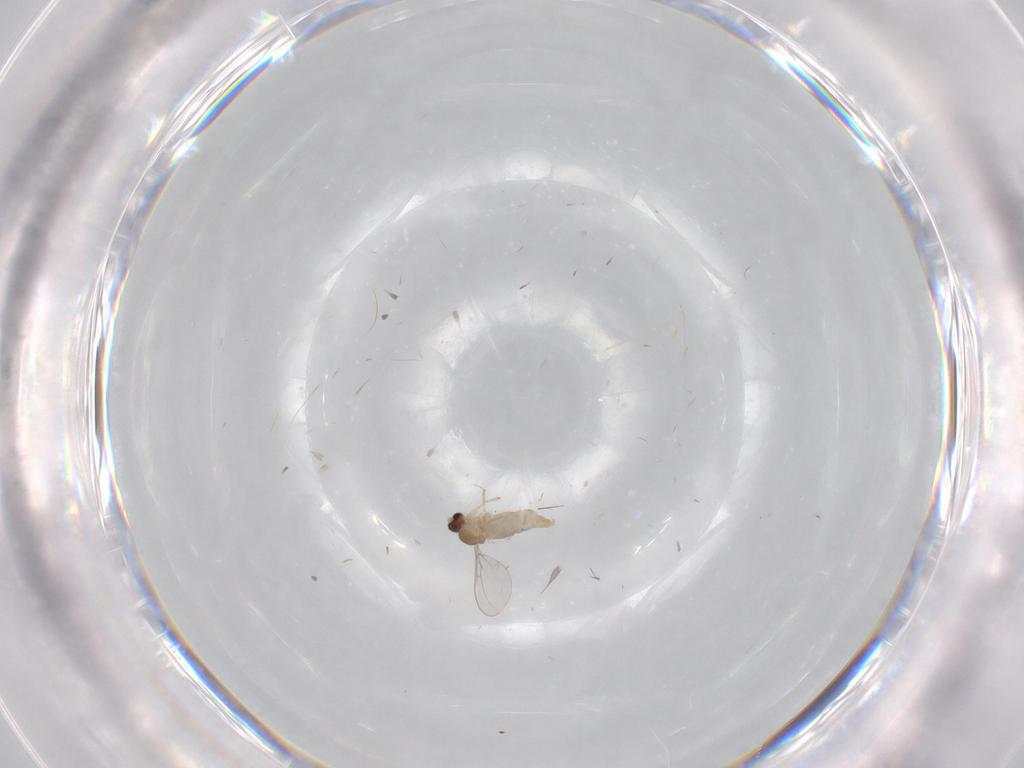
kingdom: Animalia
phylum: Arthropoda
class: Insecta
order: Diptera
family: Cecidomyiidae
